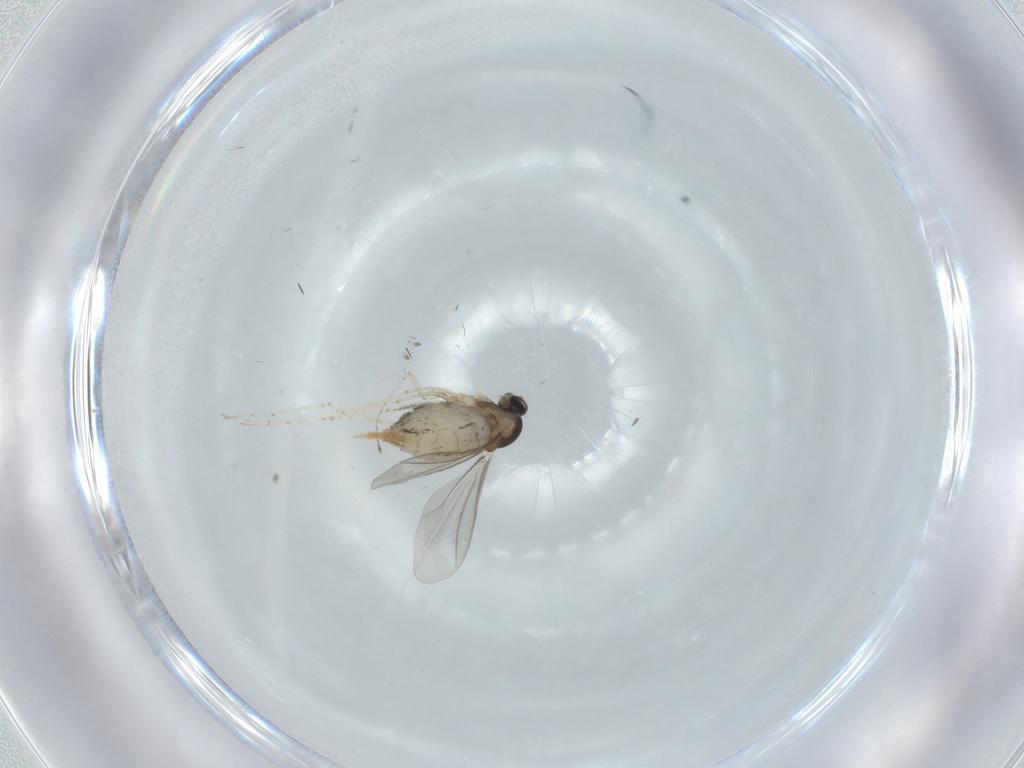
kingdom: Animalia
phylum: Arthropoda
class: Insecta
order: Diptera
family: Cecidomyiidae
